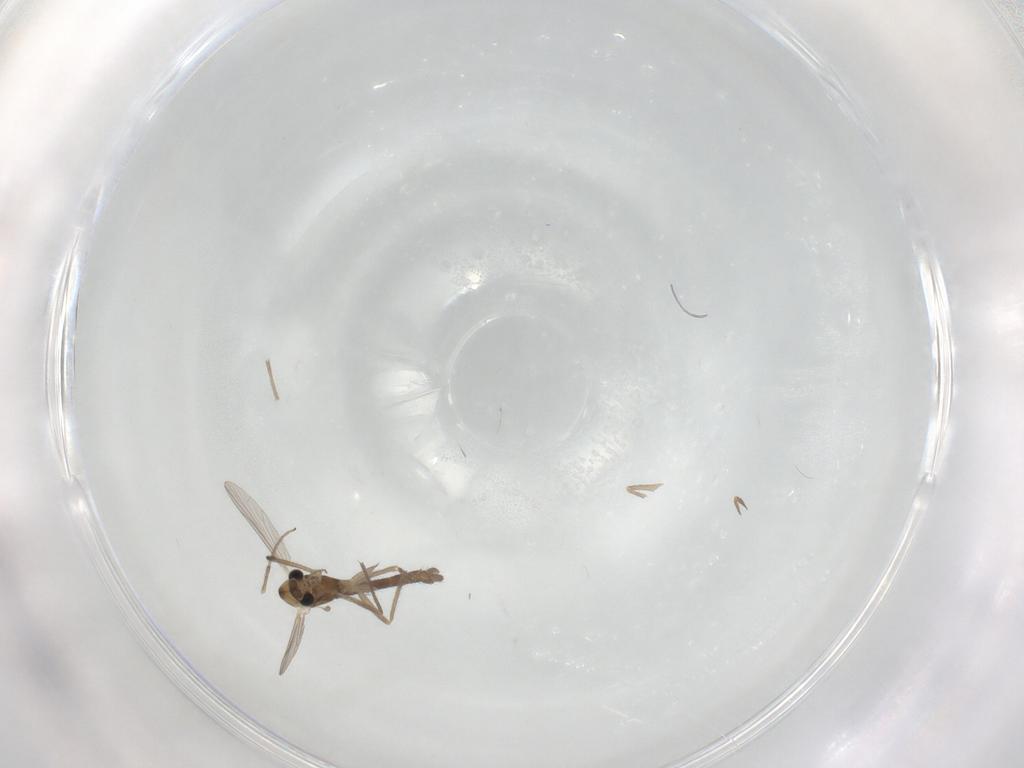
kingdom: Animalia
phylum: Arthropoda
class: Insecta
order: Diptera
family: Chironomidae
